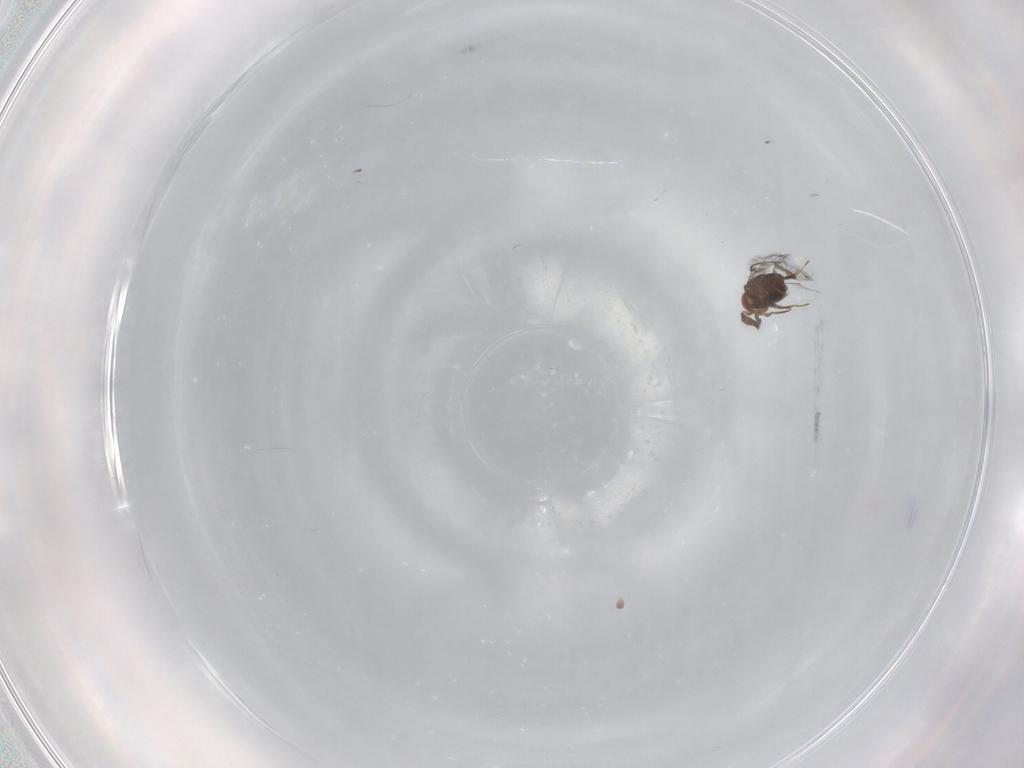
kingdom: Animalia
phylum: Arthropoda
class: Insecta
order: Hymenoptera
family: Trichogrammatidae
